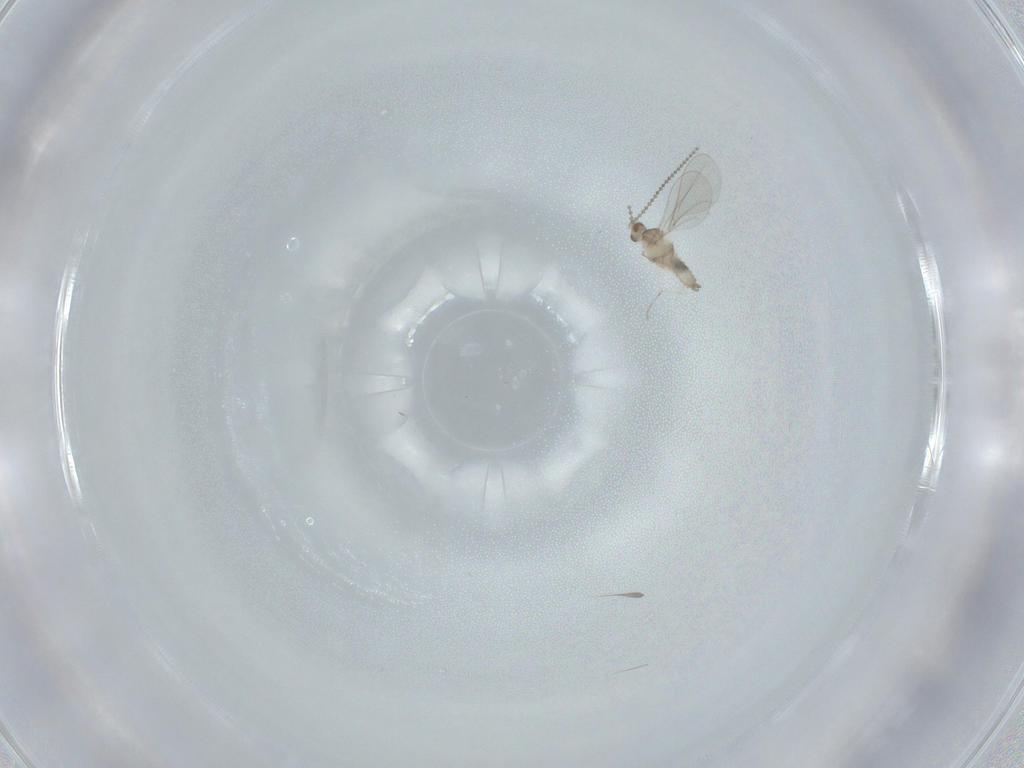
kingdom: Animalia
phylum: Arthropoda
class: Insecta
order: Diptera
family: Cecidomyiidae
